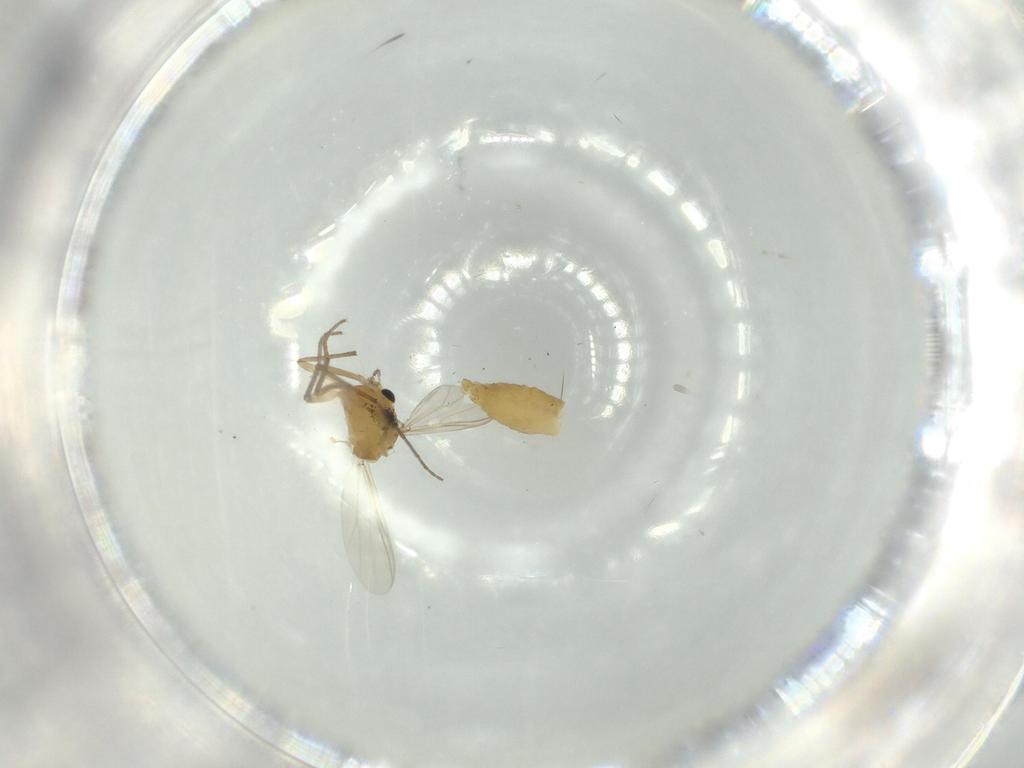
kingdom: Animalia
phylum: Arthropoda
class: Insecta
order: Diptera
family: Chironomidae
